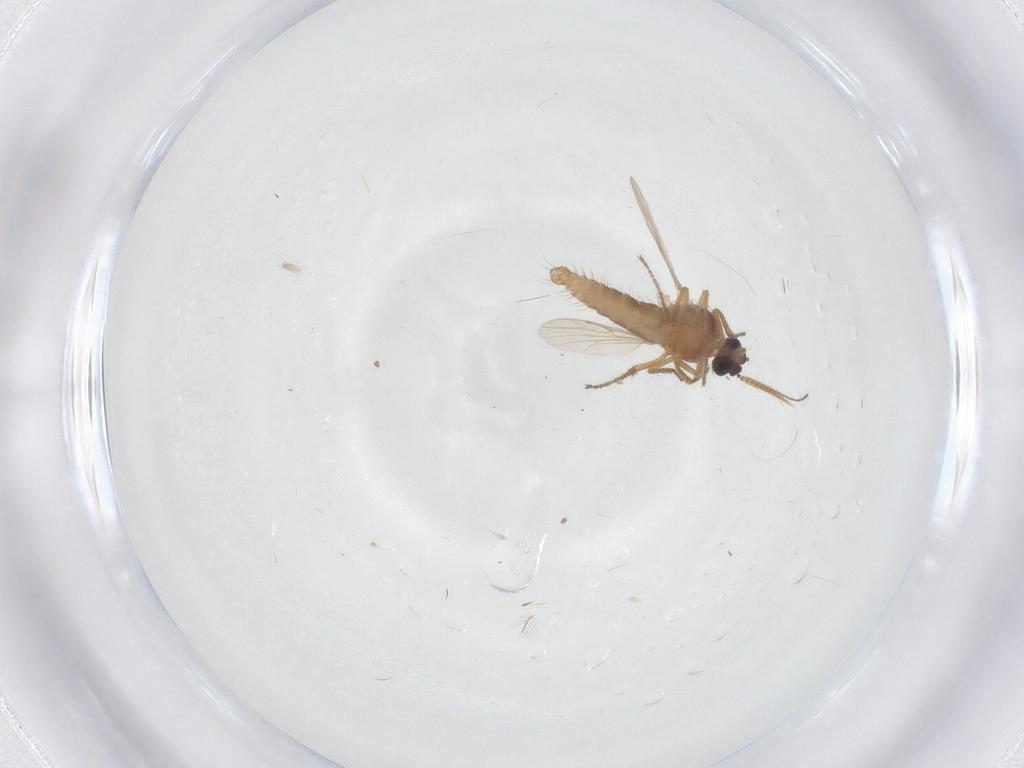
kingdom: Animalia
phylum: Arthropoda
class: Insecta
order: Diptera
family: Ceratopogonidae
